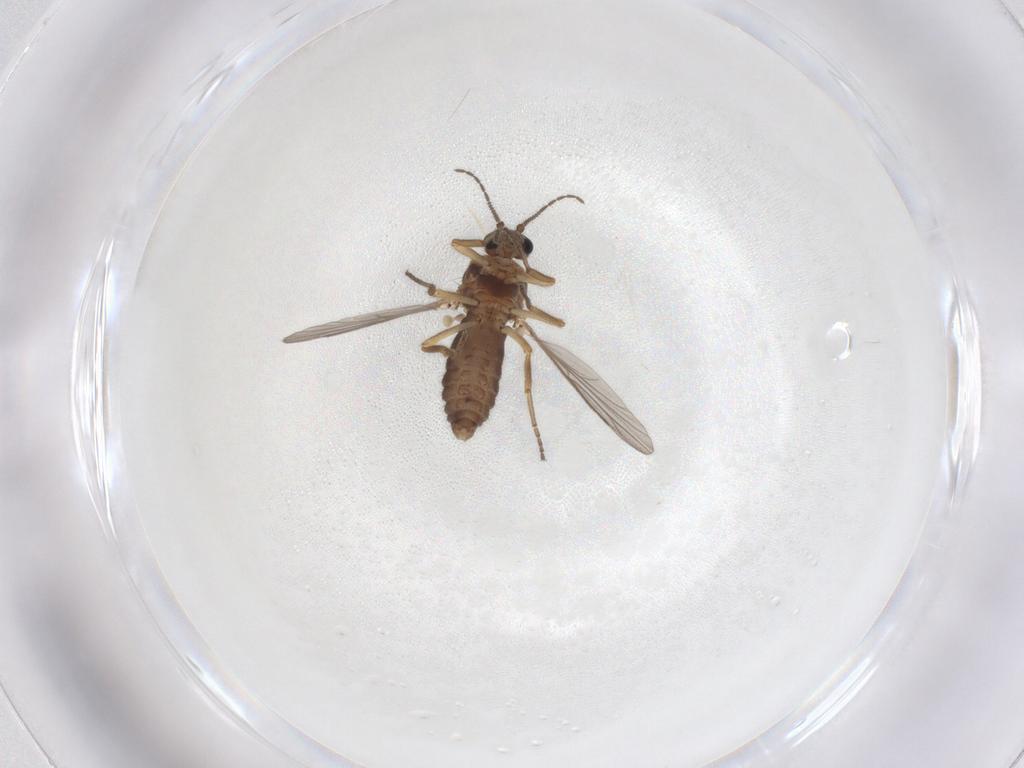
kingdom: Animalia
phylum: Arthropoda
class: Insecta
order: Diptera
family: Ceratopogonidae
